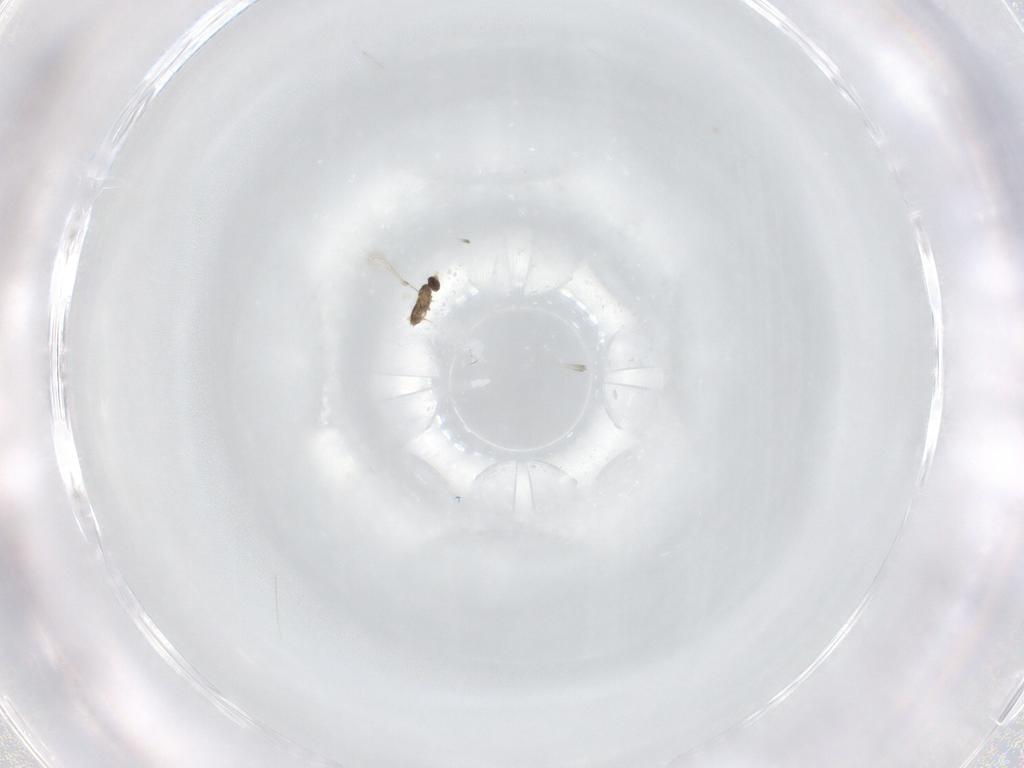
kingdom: Animalia
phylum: Arthropoda
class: Insecta
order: Hymenoptera
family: Mymaridae
